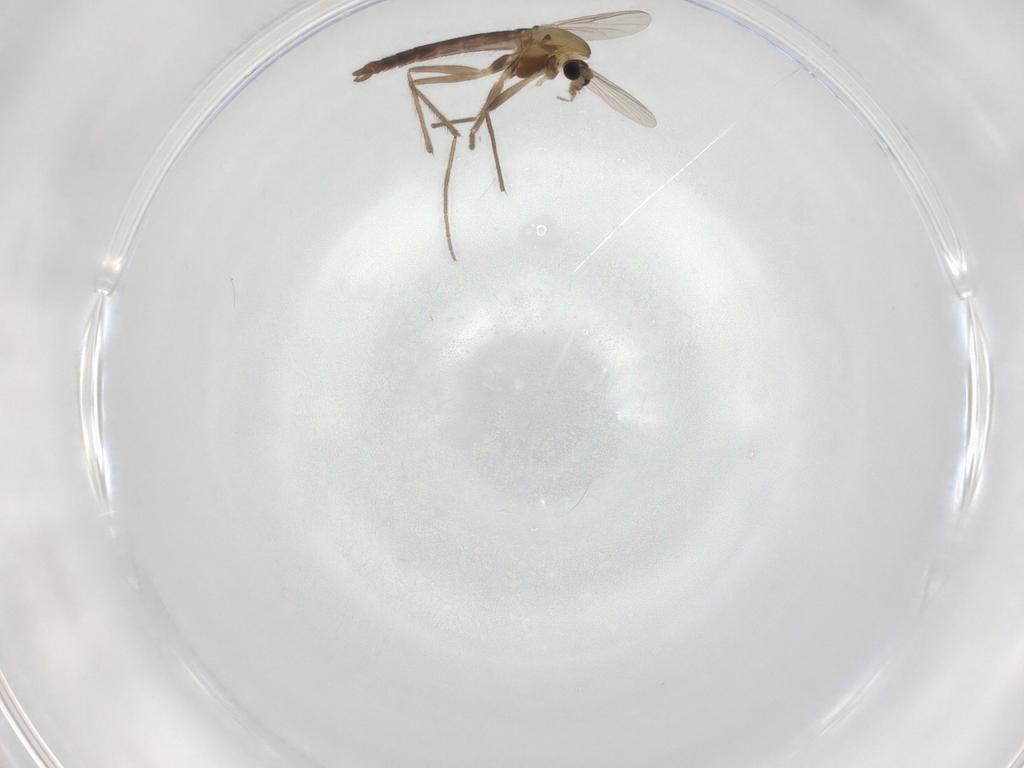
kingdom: Animalia
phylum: Arthropoda
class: Insecta
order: Diptera
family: Chironomidae
